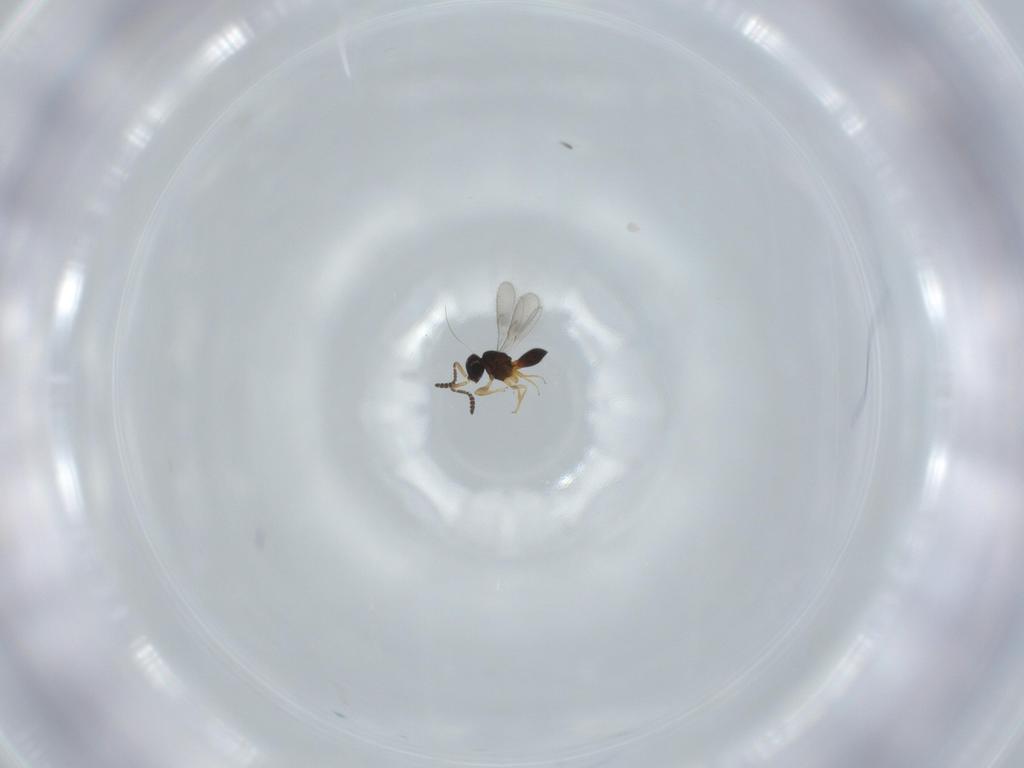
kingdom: Animalia
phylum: Arthropoda
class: Insecta
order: Hymenoptera
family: Scelionidae
